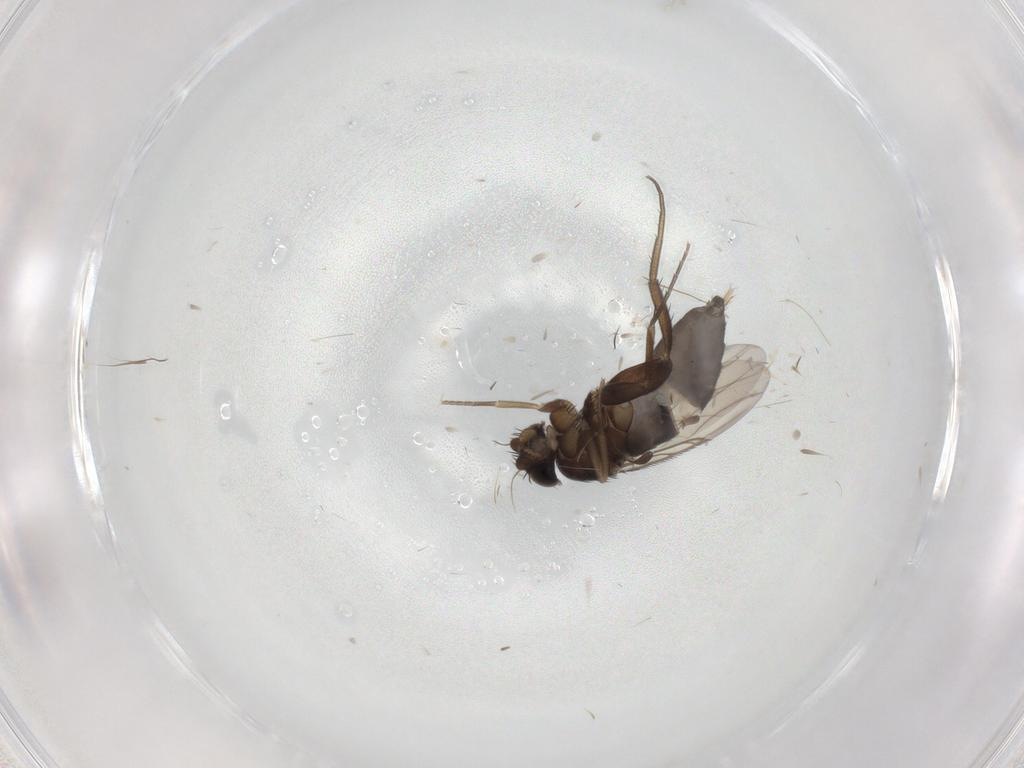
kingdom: Animalia
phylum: Arthropoda
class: Insecta
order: Diptera
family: Phoridae
